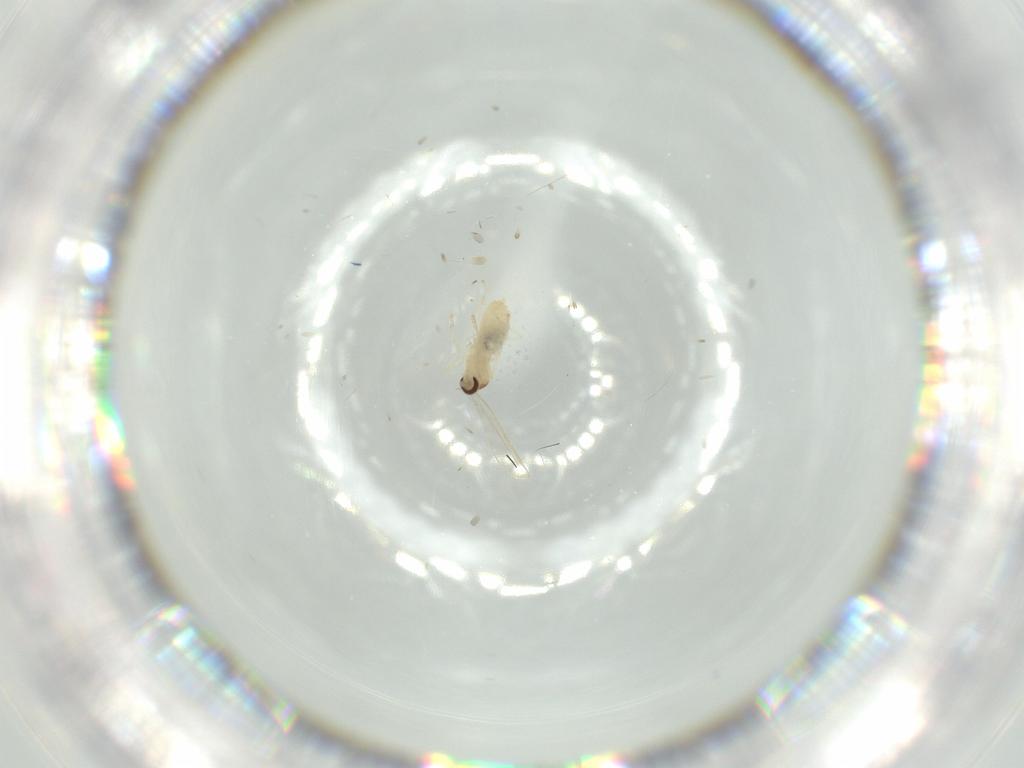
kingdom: Animalia
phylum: Arthropoda
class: Insecta
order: Diptera
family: Cecidomyiidae
